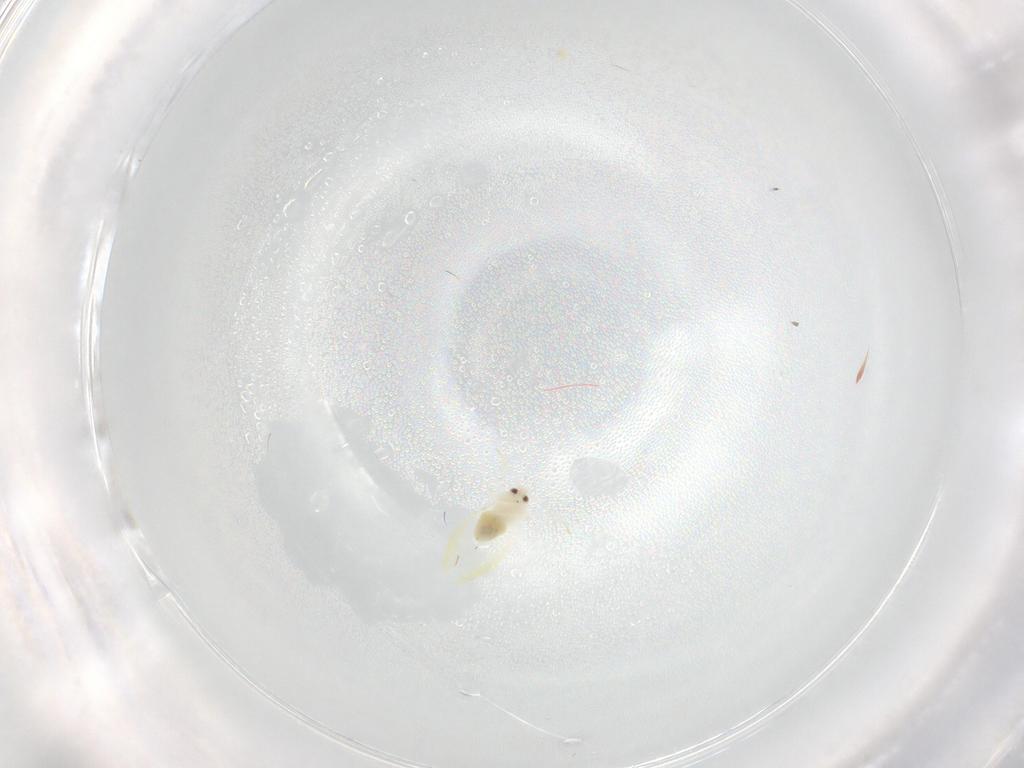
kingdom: Animalia
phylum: Arthropoda
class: Insecta
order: Hemiptera
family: Aleyrodidae
